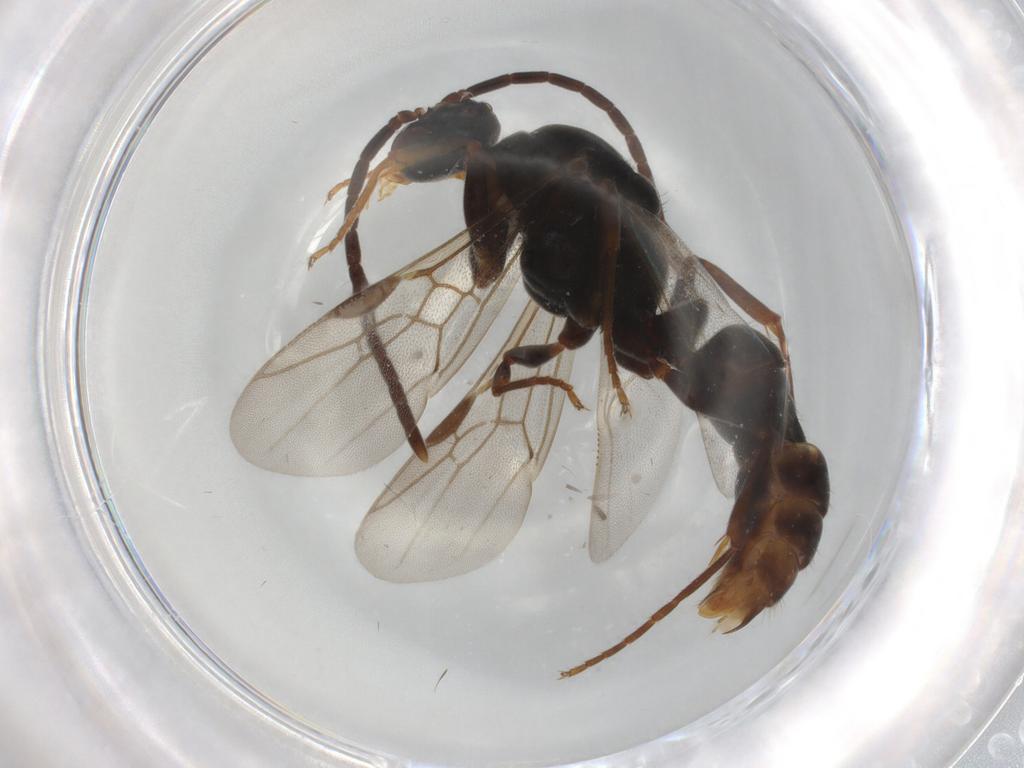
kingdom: Animalia
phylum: Arthropoda
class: Insecta
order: Hymenoptera
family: Formicidae
